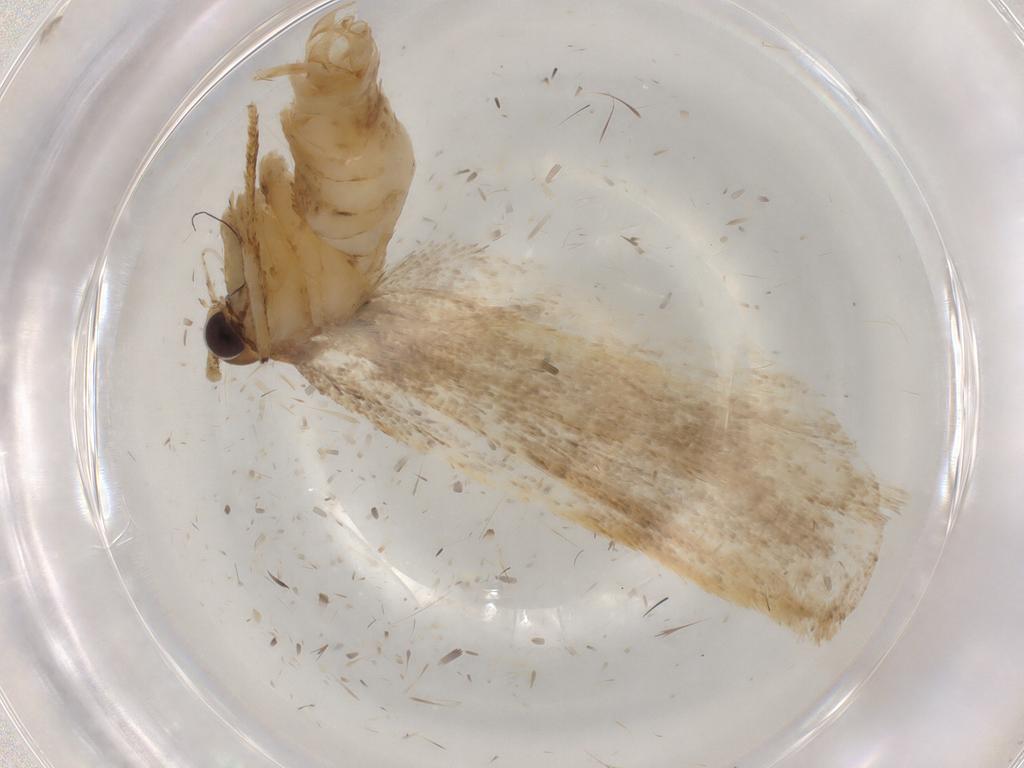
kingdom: Animalia
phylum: Arthropoda
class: Insecta
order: Lepidoptera
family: Lecithoceridae
